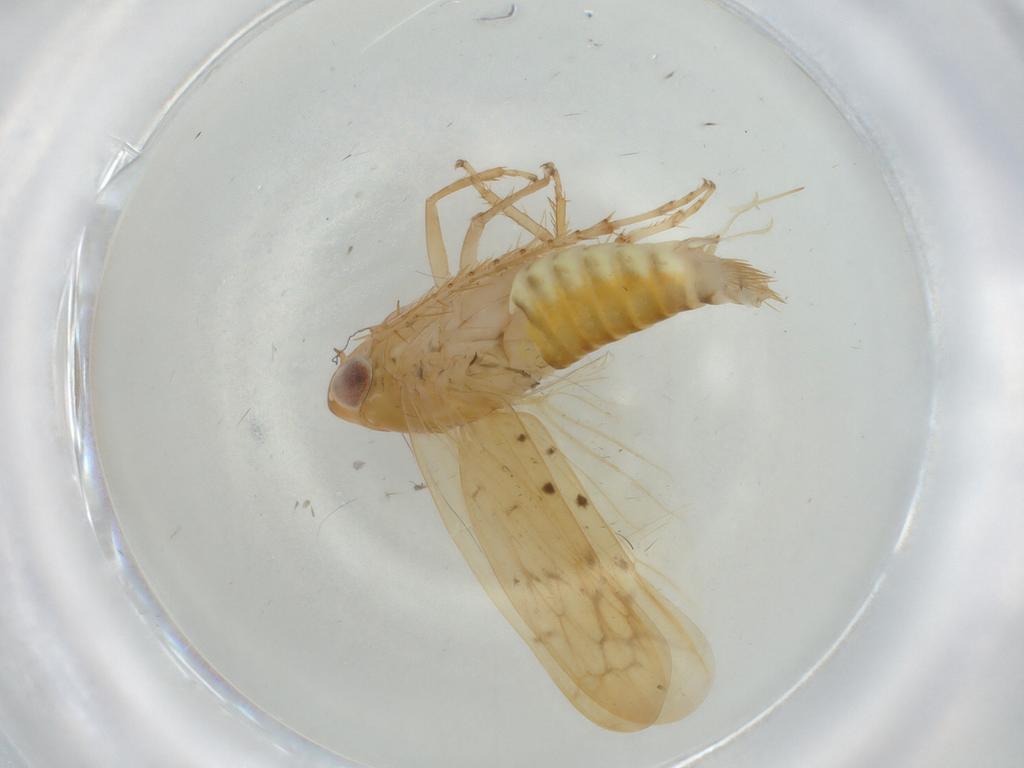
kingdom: Animalia
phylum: Arthropoda
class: Insecta
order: Hemiptera
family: Cicadellidae
